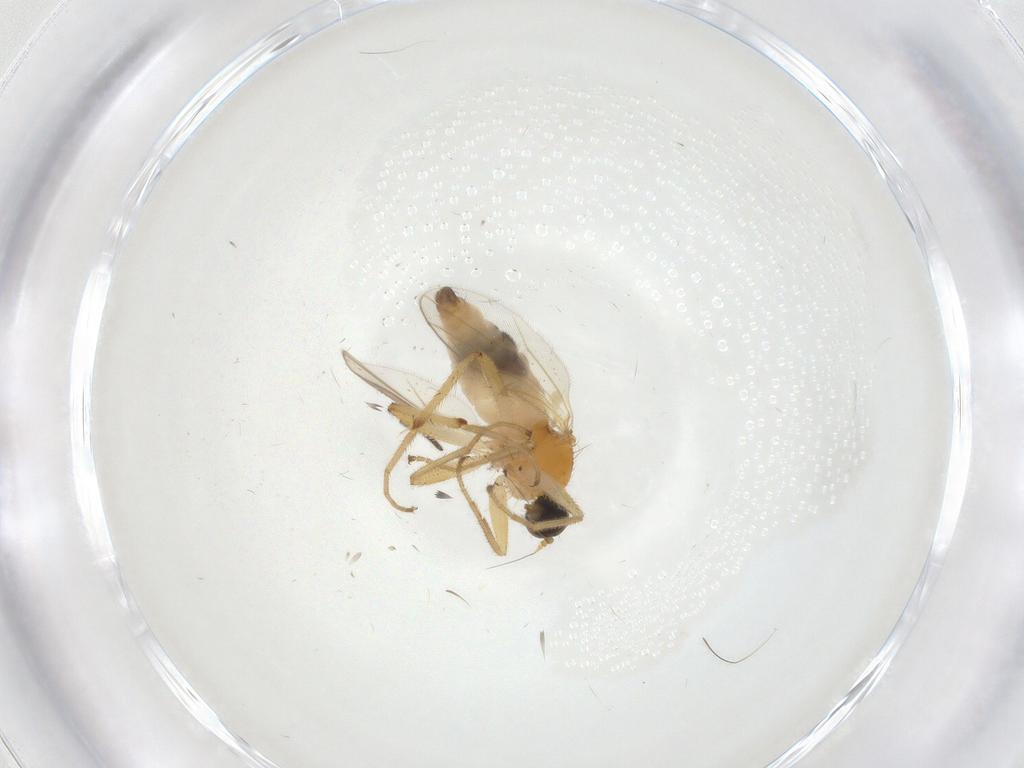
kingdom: Animalia
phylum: Arthropoda
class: Insecta
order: Diptera
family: Hybotidae
